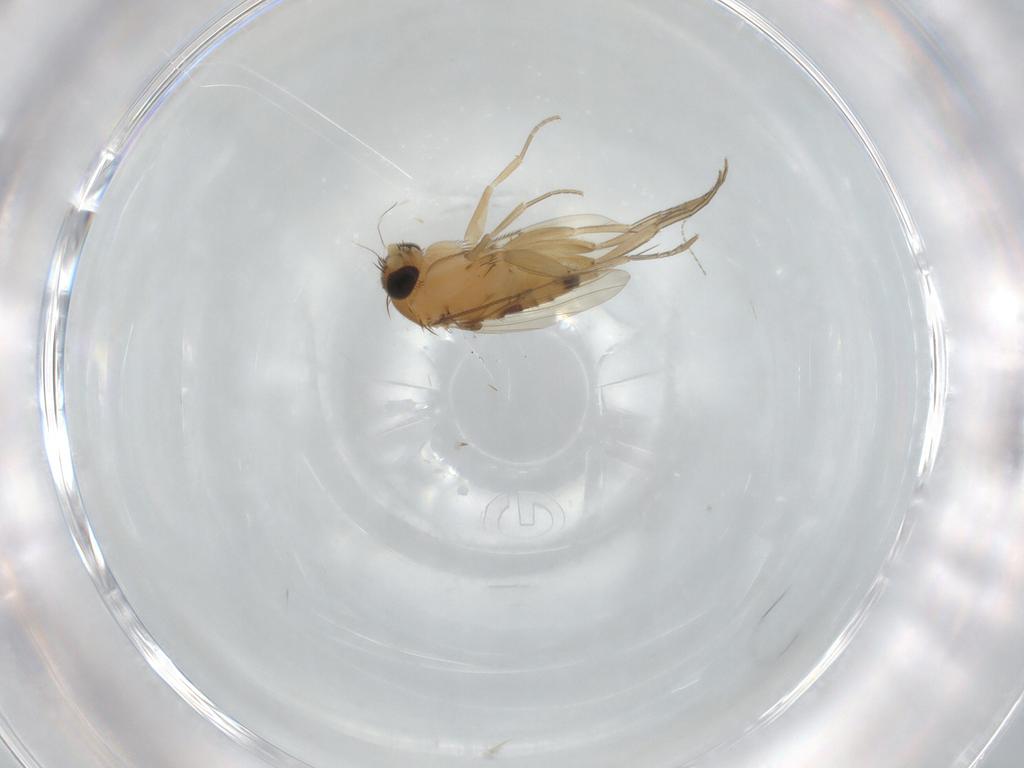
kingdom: Animalia
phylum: Arthropoda
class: Insecta
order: Diptera
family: Phoridae
